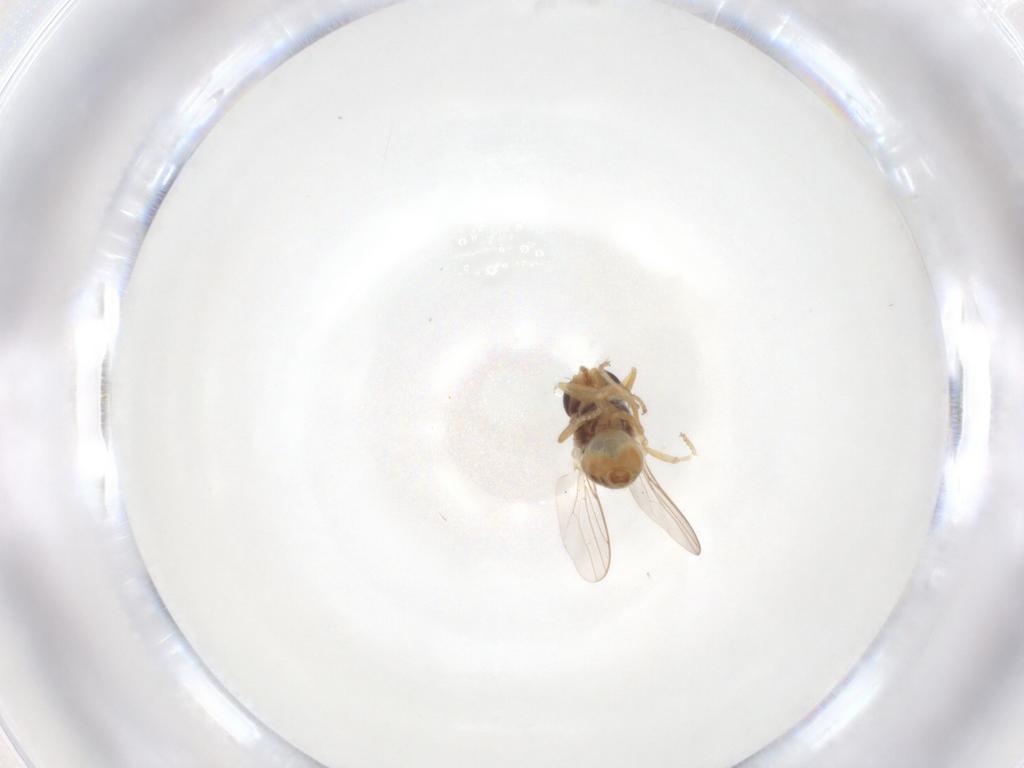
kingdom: Animalia
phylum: Arthropoda
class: Insecta
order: Diptera
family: Chloropidae
